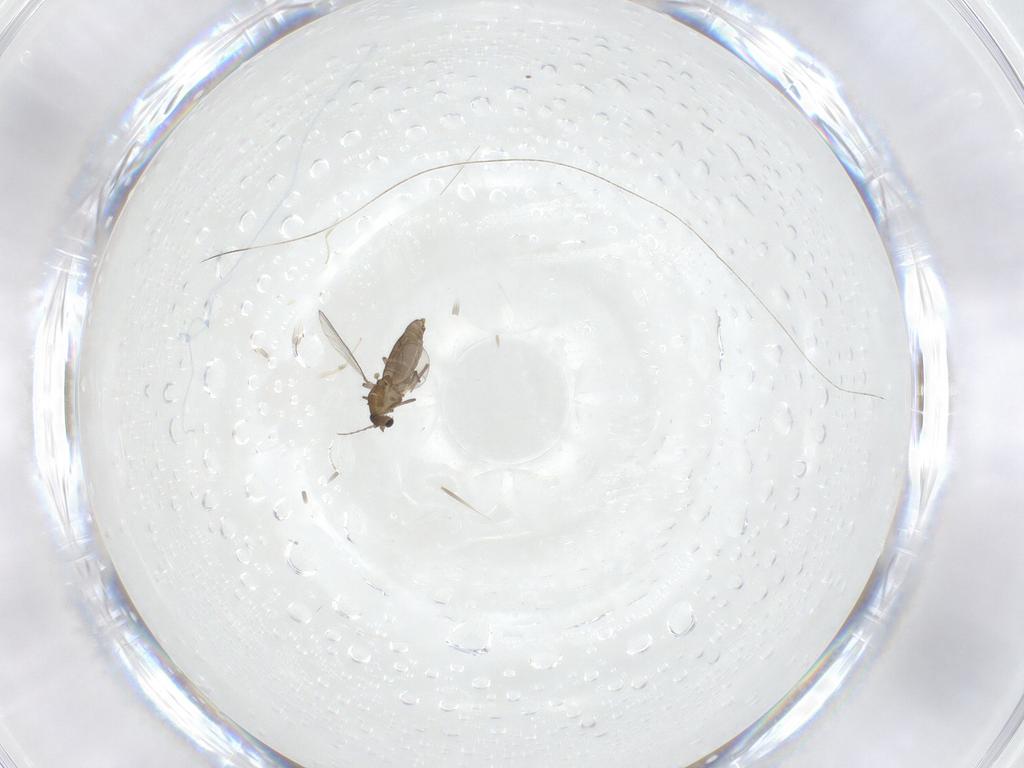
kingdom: Animalia
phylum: Arthropoda
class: Insecta
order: Diptera
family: Chironomidae
